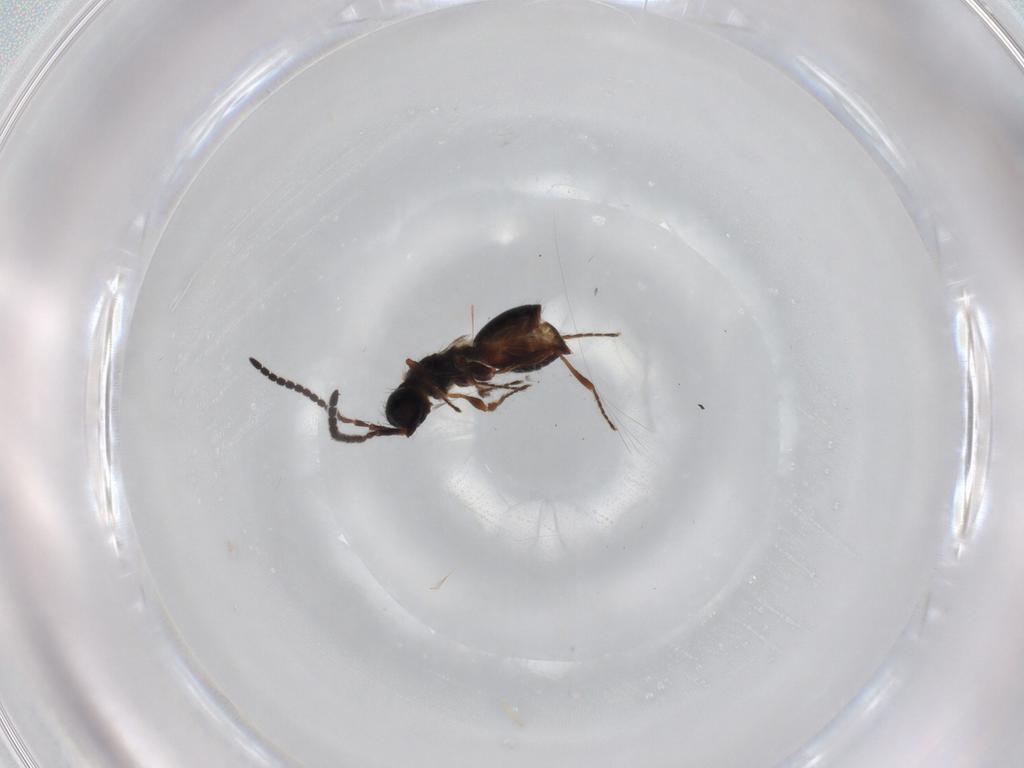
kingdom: Animalia
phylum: Arthropoda
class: Insecta
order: Hymenoptera
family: Diapriidae
